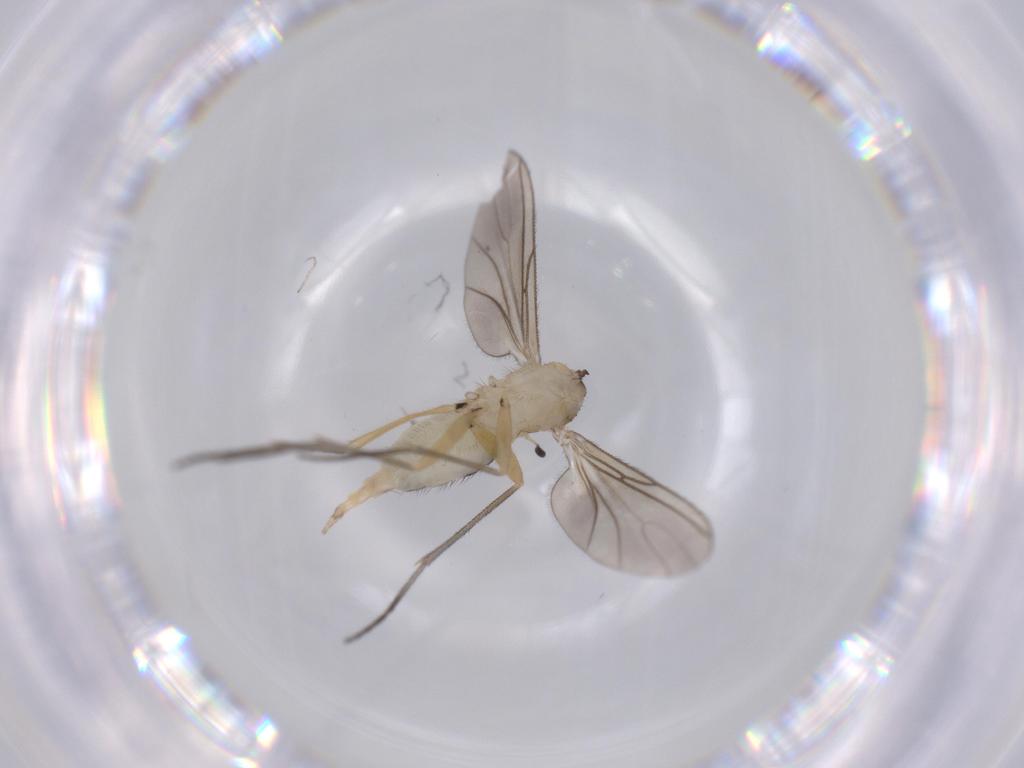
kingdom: Animalia
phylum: Arthropoda
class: Insecta
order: Diptera
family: Sciaridae
